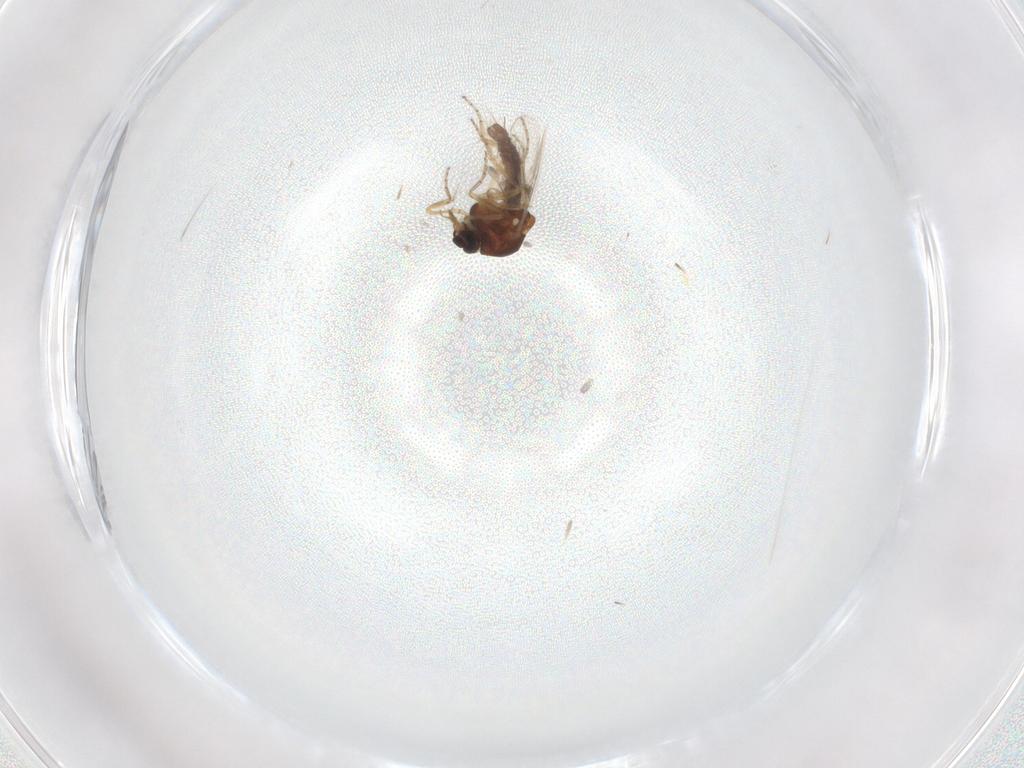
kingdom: Animalia
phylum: Arthropoda
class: Insecta
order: Diptera
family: Ceratopogonidae
